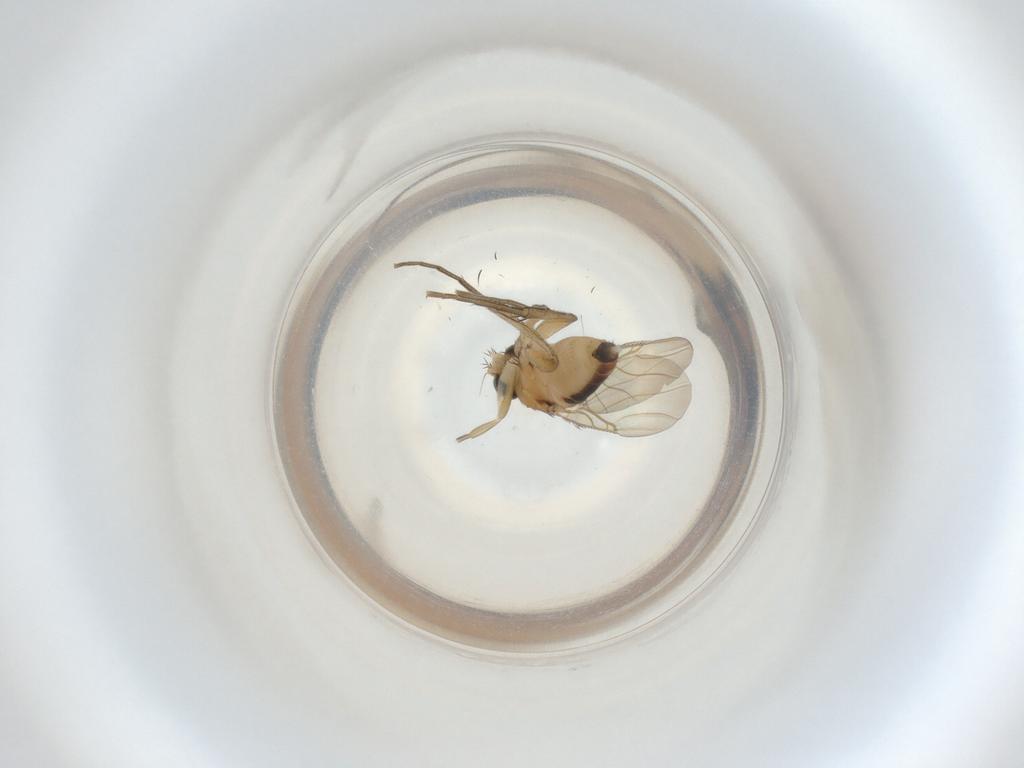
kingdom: Animalia
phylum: Arthropoda
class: Insecta
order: Diptera
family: Phoridae
